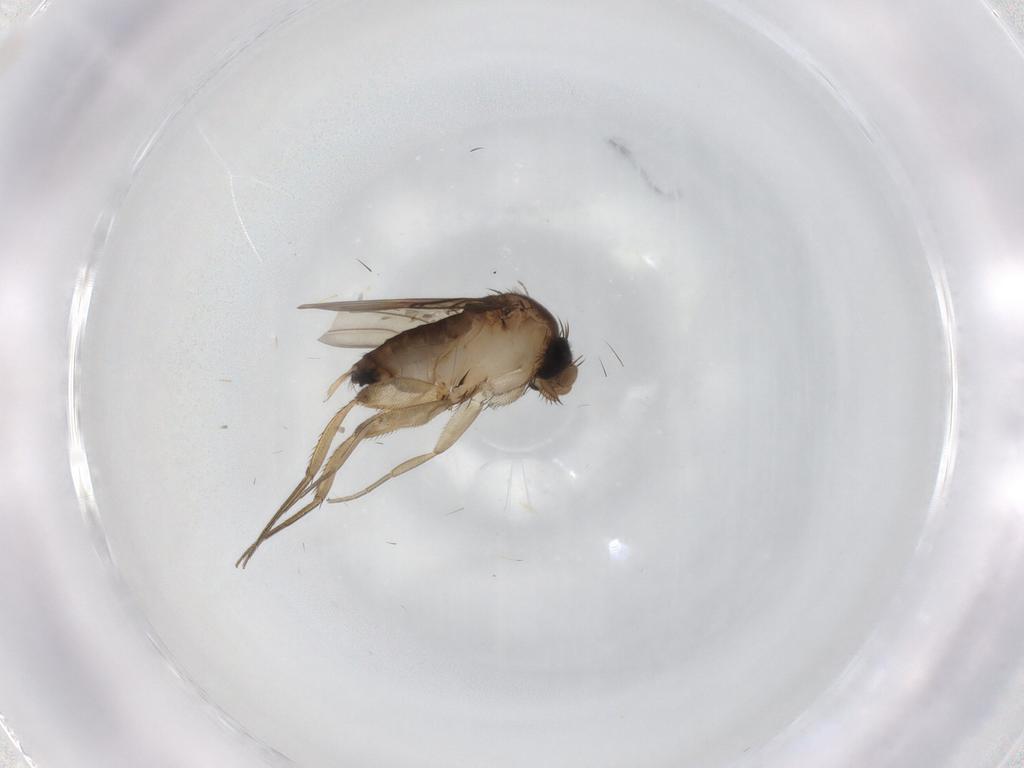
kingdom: Animalia
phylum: Arthropoda
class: Insecta
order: Diptera
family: Chironomidae
